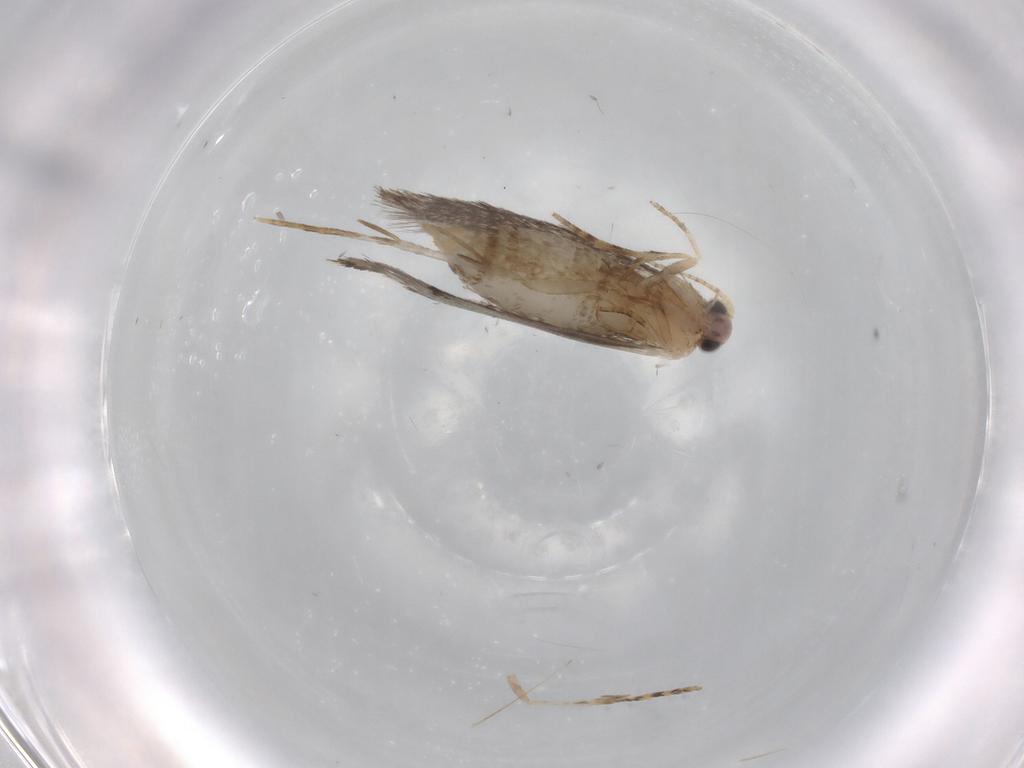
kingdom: Animalia
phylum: Arthropoda
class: Insecta
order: Lepidoptera
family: Tineidae
